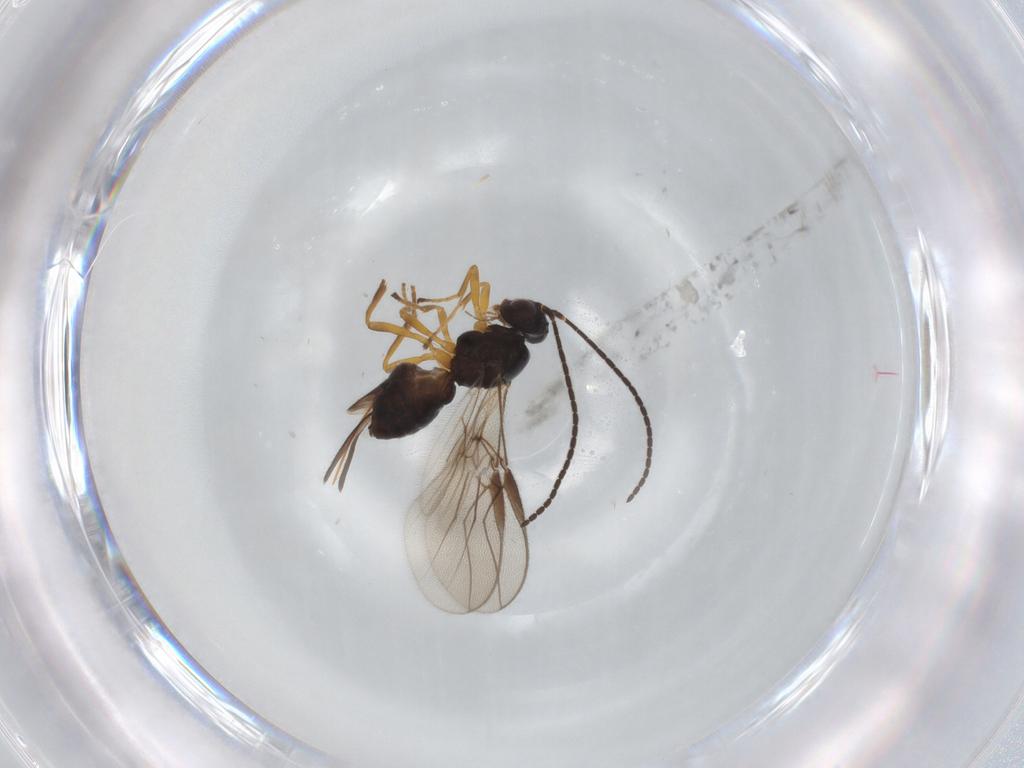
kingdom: Animalia
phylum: Arthropoda
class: Insecta
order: Hymenoptera
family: Braconidae
